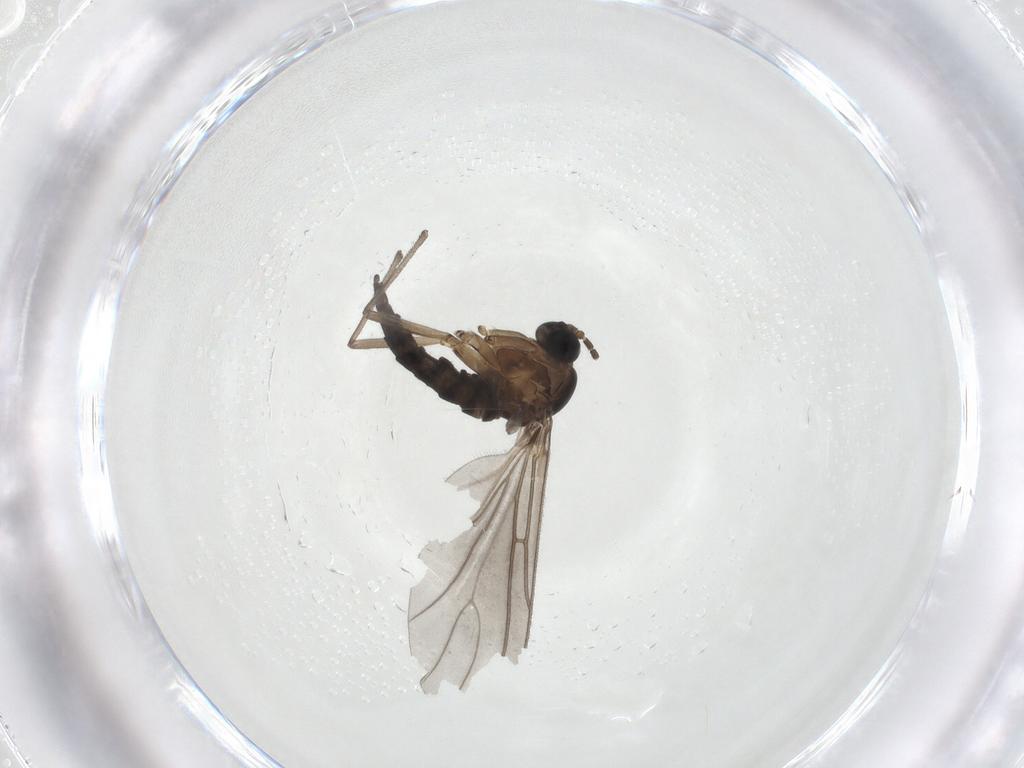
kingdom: Animalia
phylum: Arthropoda
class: Insecta
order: Diptera
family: Sciaridae
